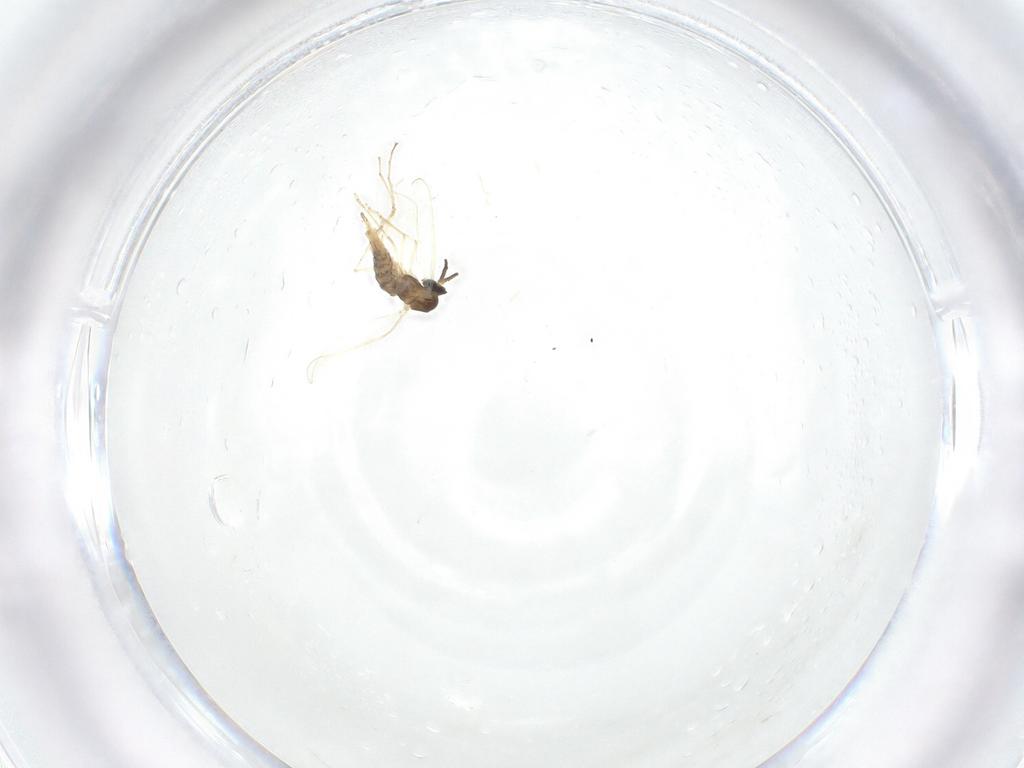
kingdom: Animalia
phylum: Arthropoda
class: Insecta
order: Diptera
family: Cecidomyiidae
